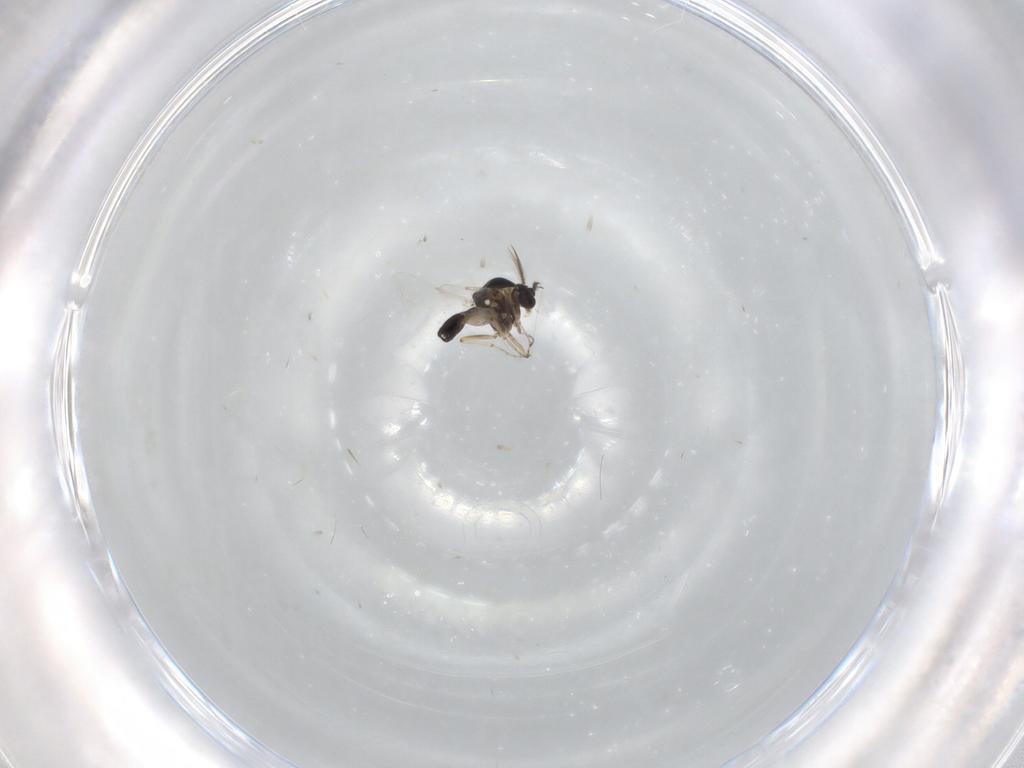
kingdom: Animalia
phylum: Arthropoda
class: Insecta
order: Diptera
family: Ceratopogonidae
